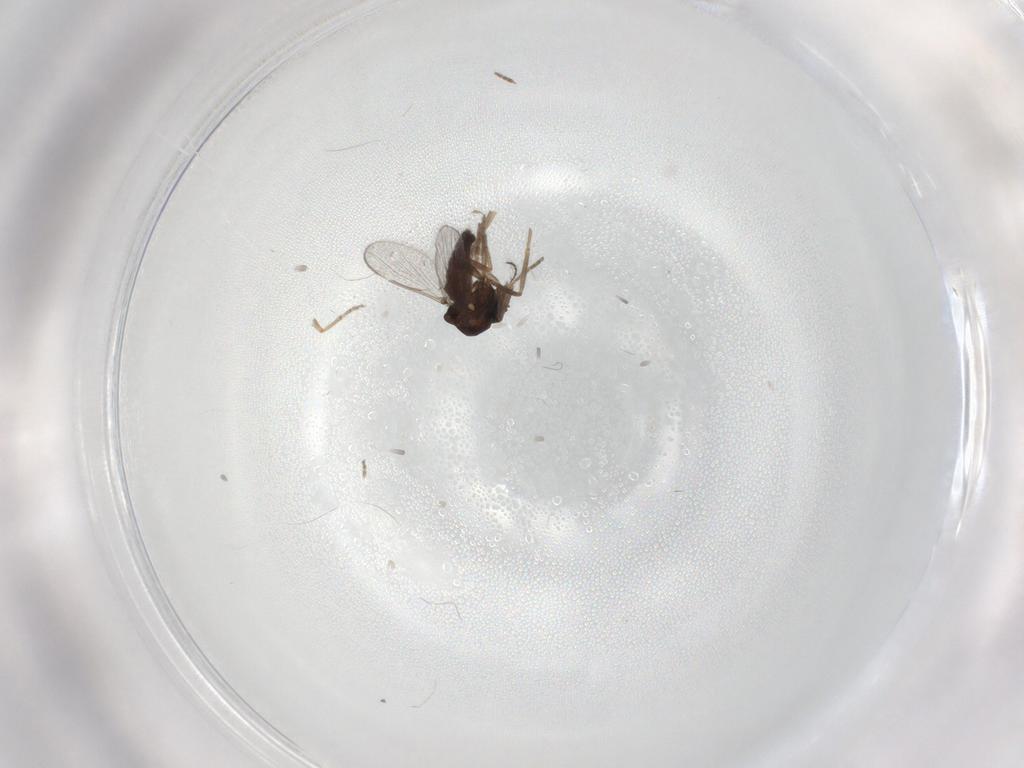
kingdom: Animalia
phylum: Arthropoda
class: Insecta
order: Diptera
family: Ceratopogonidae
